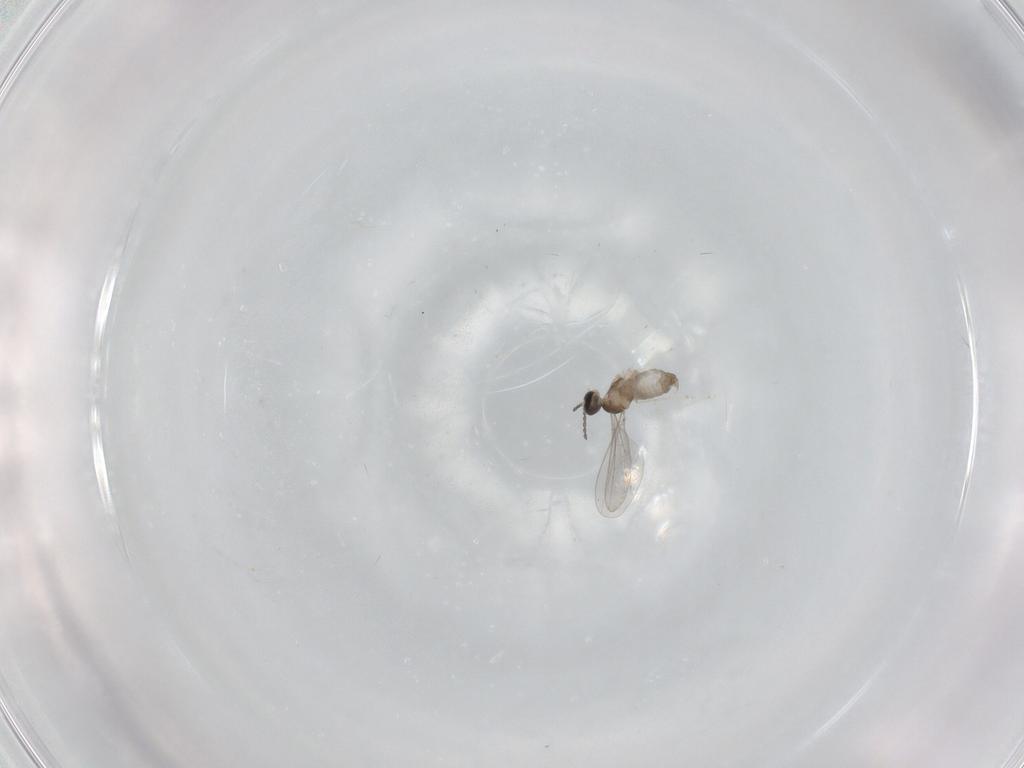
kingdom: Animalia
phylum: Arthropoda
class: Insecta
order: Diptera
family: Cecidomyiidae
